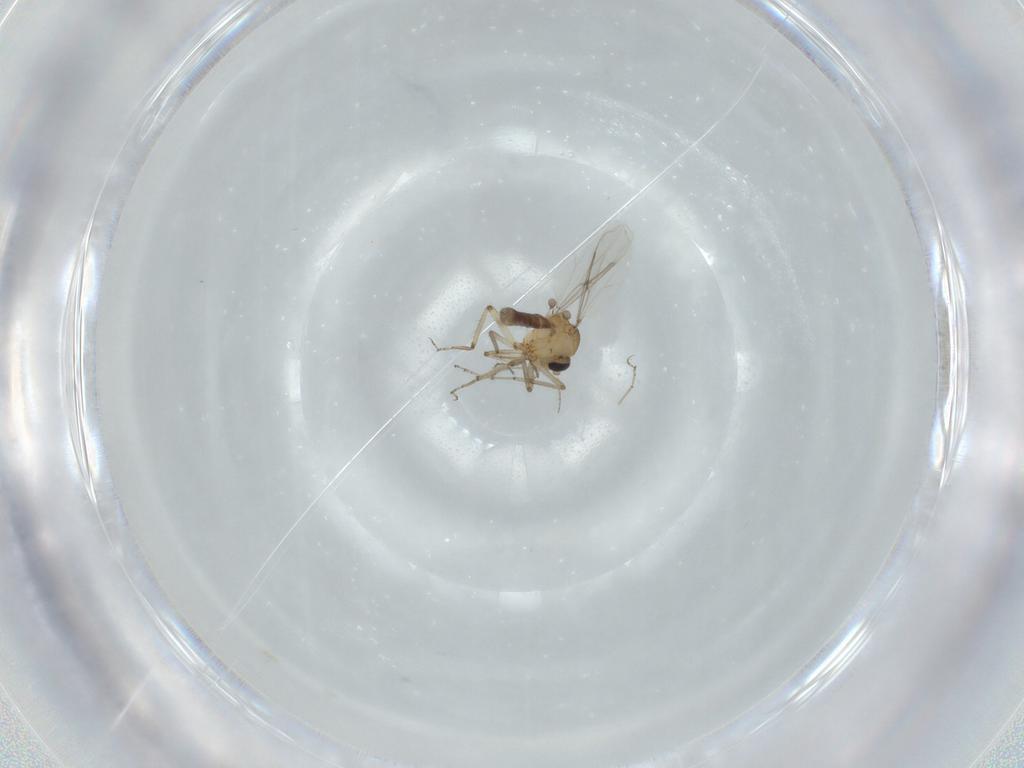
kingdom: Animalia
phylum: Arthropoda
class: Insecta
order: Diptera
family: Ceratopogonidae
